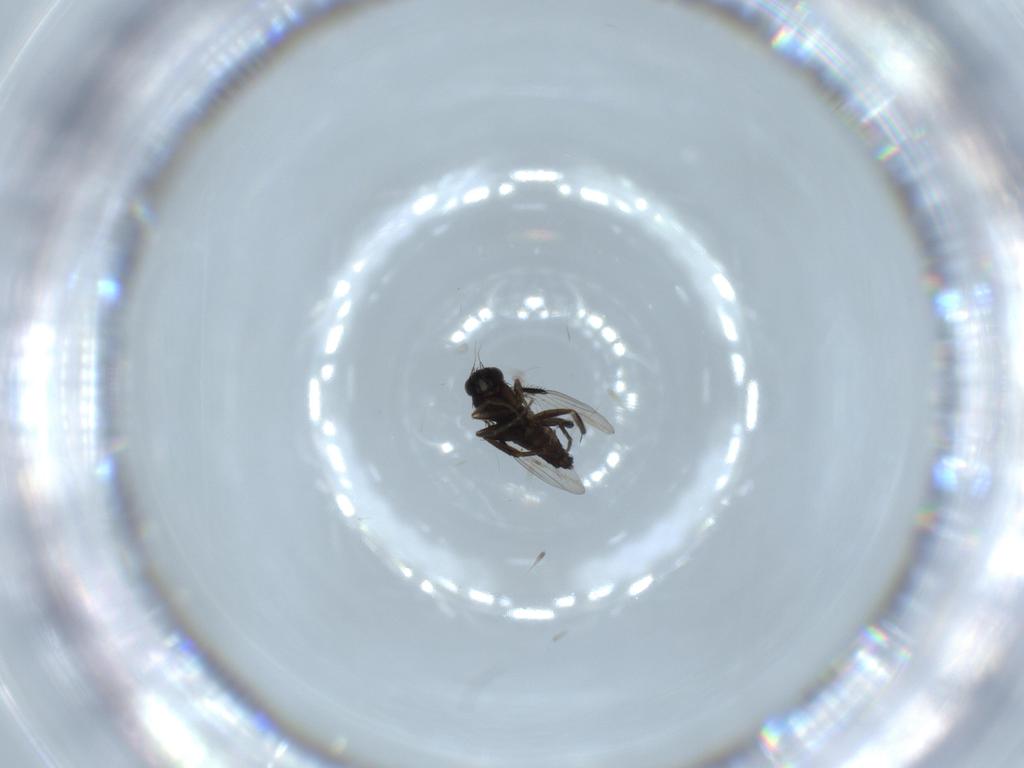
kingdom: Animalia
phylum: Arthropoda
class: Insecta
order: Diptera
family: Phoridae
